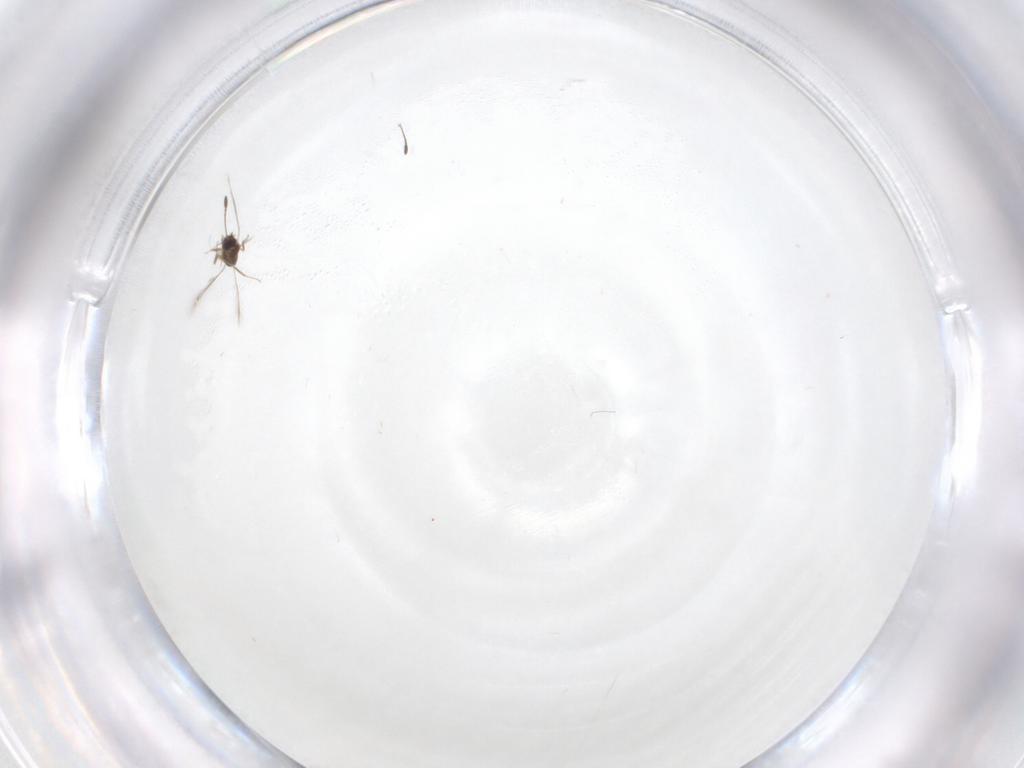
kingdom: Animalia
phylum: Arthropoda
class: Insecta
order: Hymenoptera
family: Mymaridae
